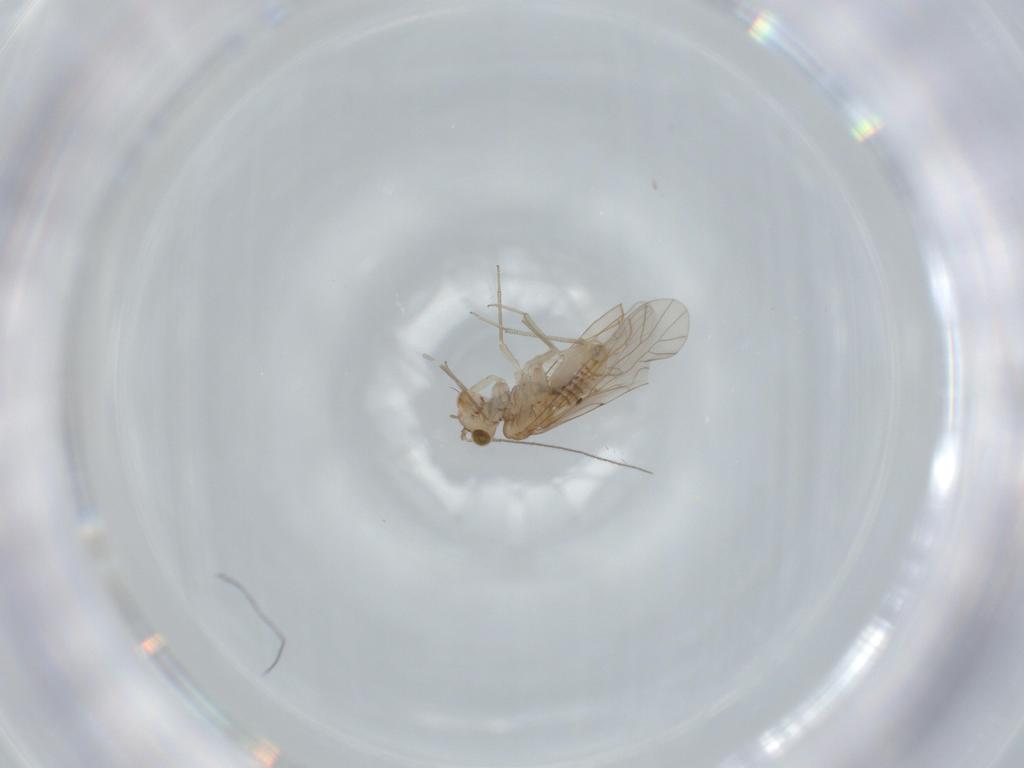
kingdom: Animalia
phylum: Arthropoda
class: Insecta
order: Psocodea
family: Lachesillidae
